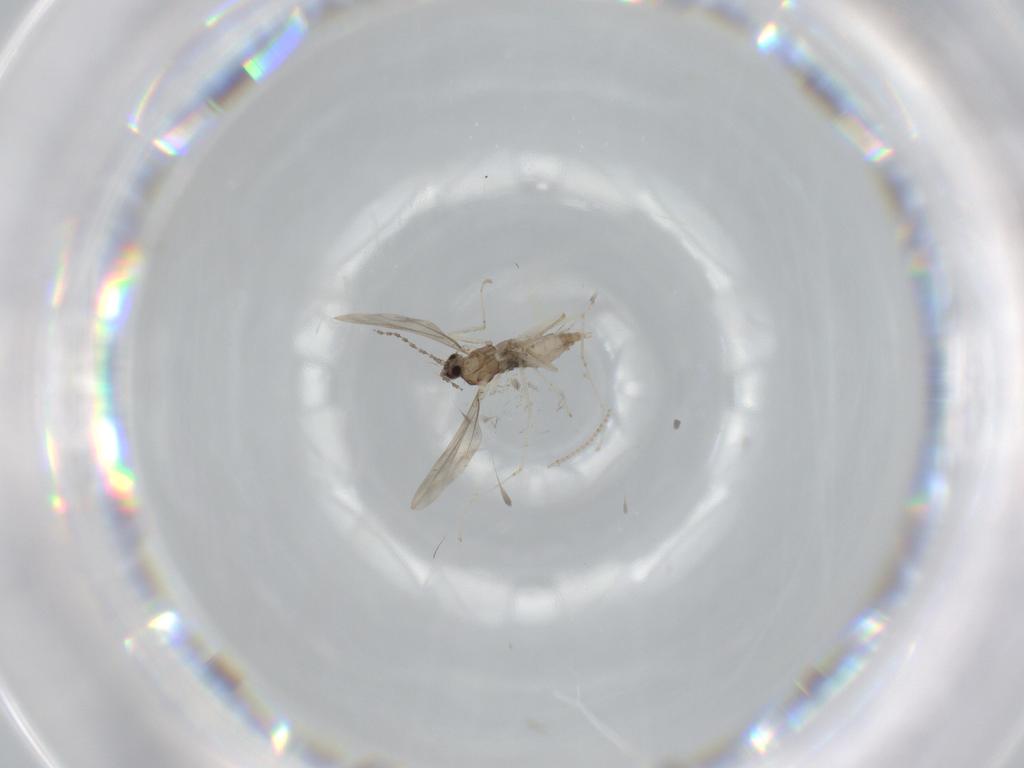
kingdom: Animalia
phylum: Arthropoda
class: Insecta
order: Diptera
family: Cecidomyiidae
